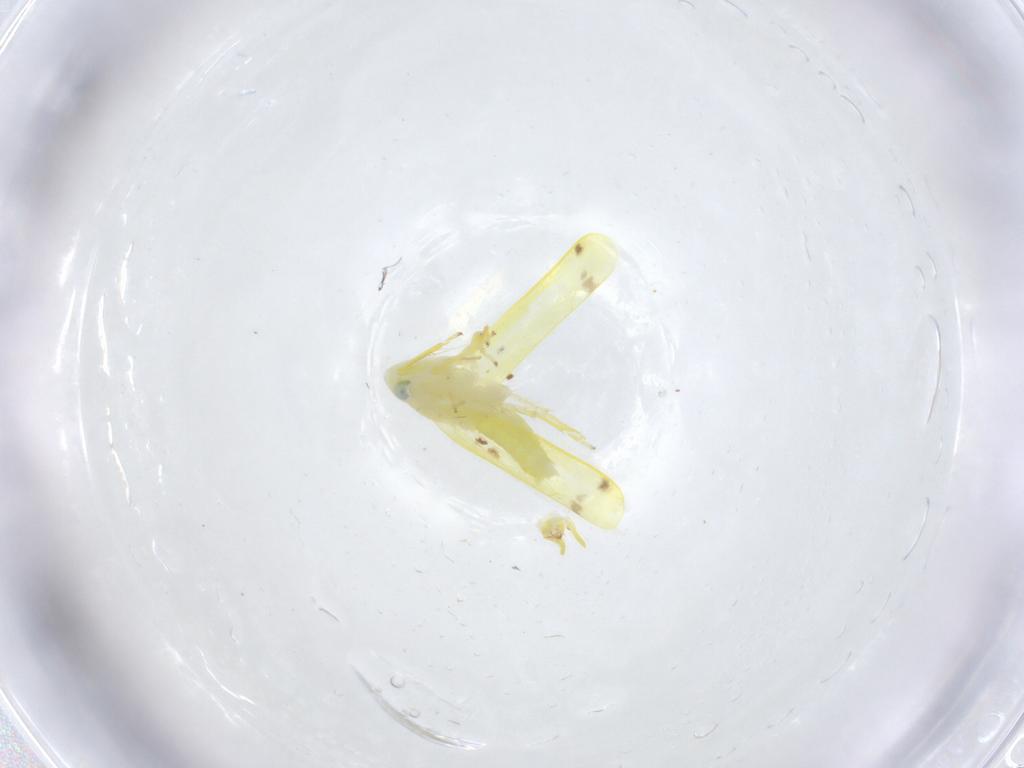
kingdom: Animalia
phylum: Arthropoda
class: Insecta
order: Hemiptera
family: Cicadellidae
